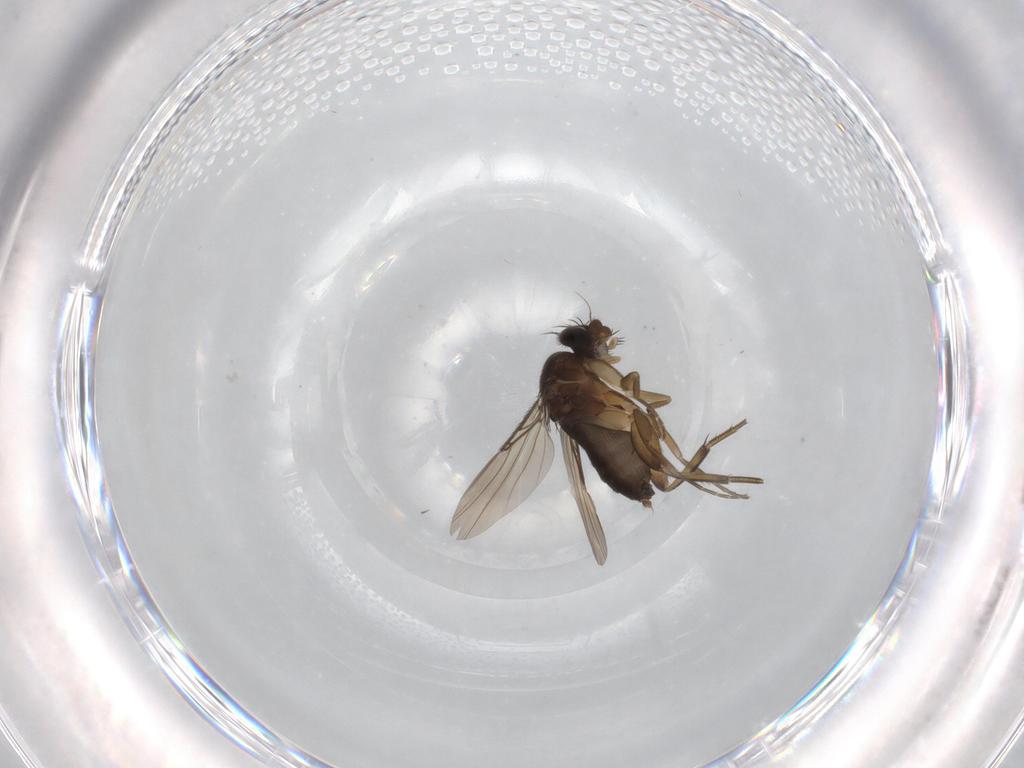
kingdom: Animalia
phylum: Arthropoda
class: Insecta
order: Diptera
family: Phoridae
